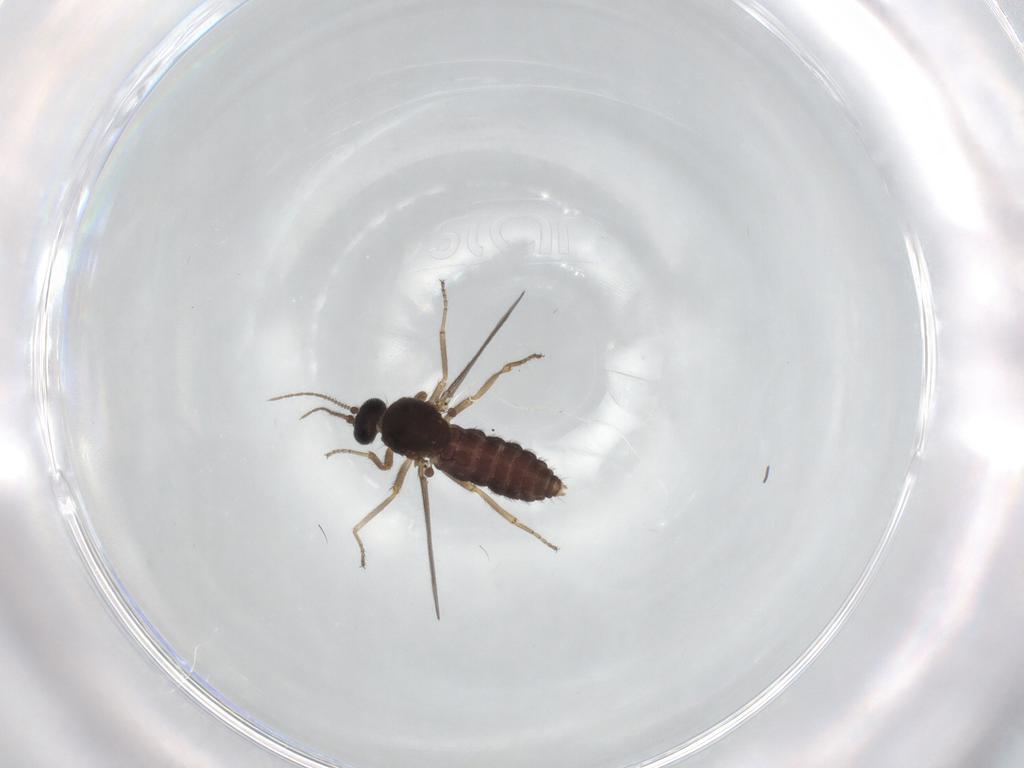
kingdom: Animalia
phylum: Arthropoda
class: Insecta
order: Diptera
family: Ceratopogonidae
